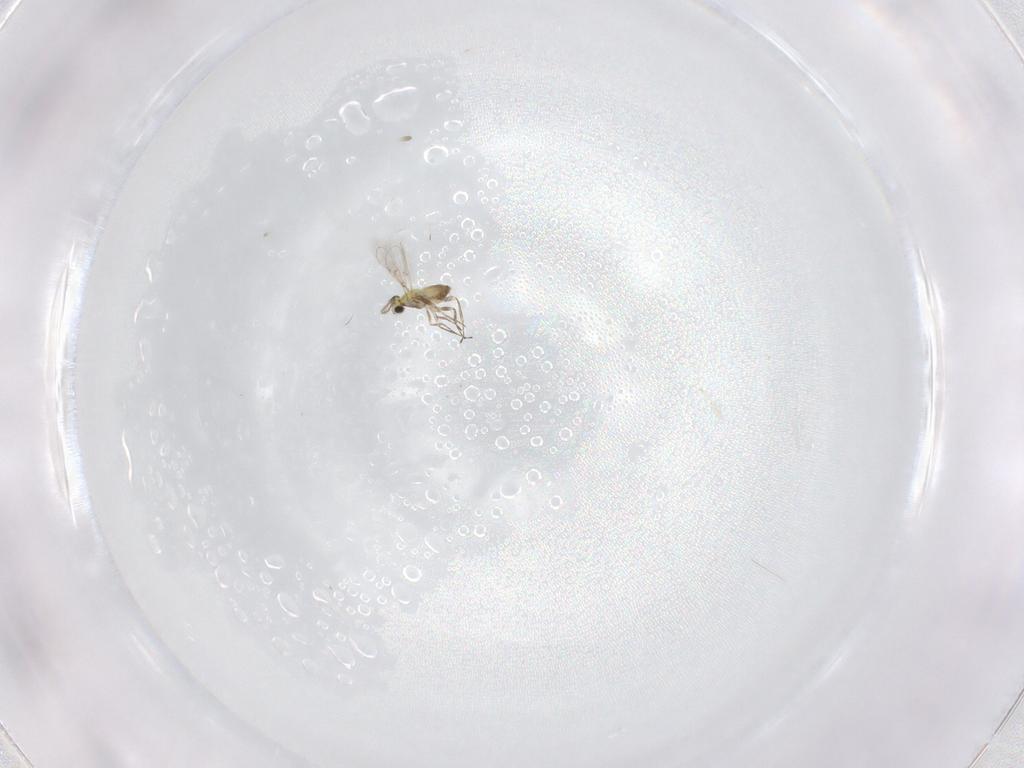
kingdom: Animalia
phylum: Arthropoda
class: Insecta
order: Hymenoptera
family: Trichogrammatidae
